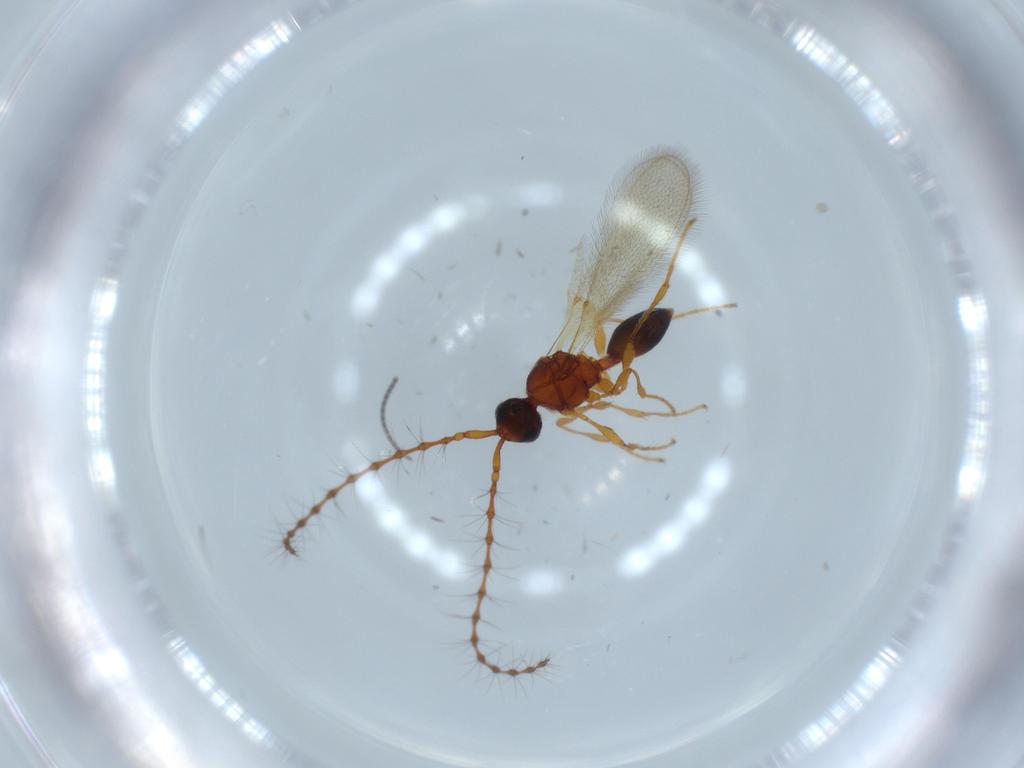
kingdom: Animalia
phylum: Arthropoda
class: Insecta
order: Hymenoptera
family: Diapriidae
